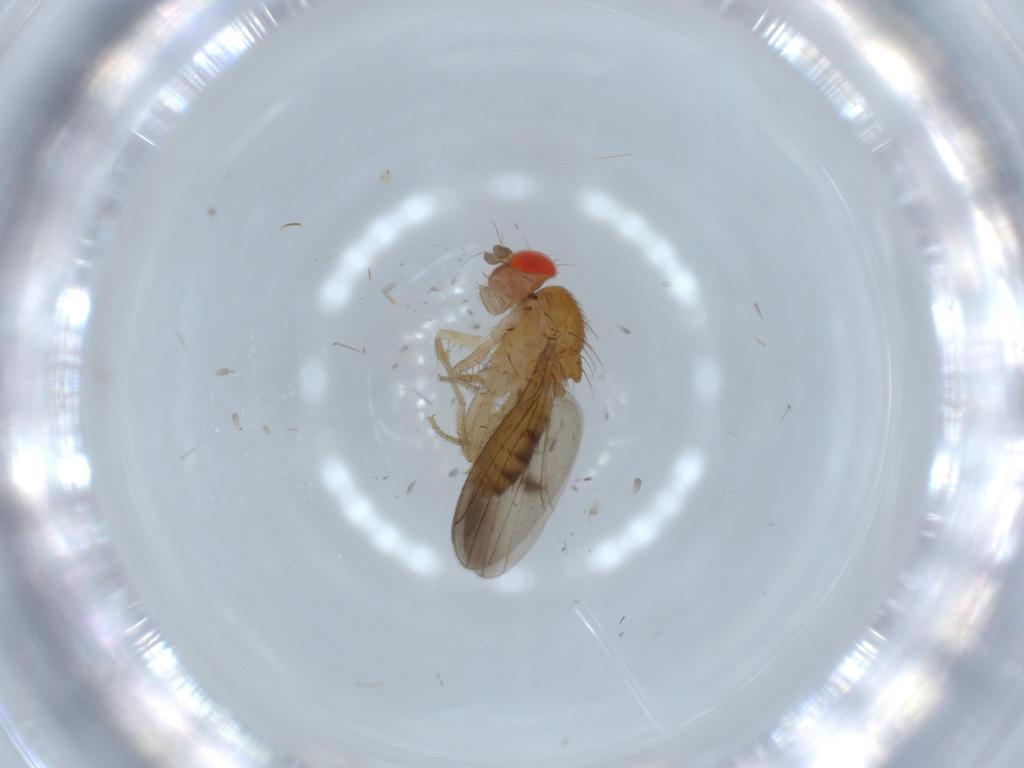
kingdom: Animalia
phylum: Arthropoda
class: Insecta
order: Diptera
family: Drosophilidae
